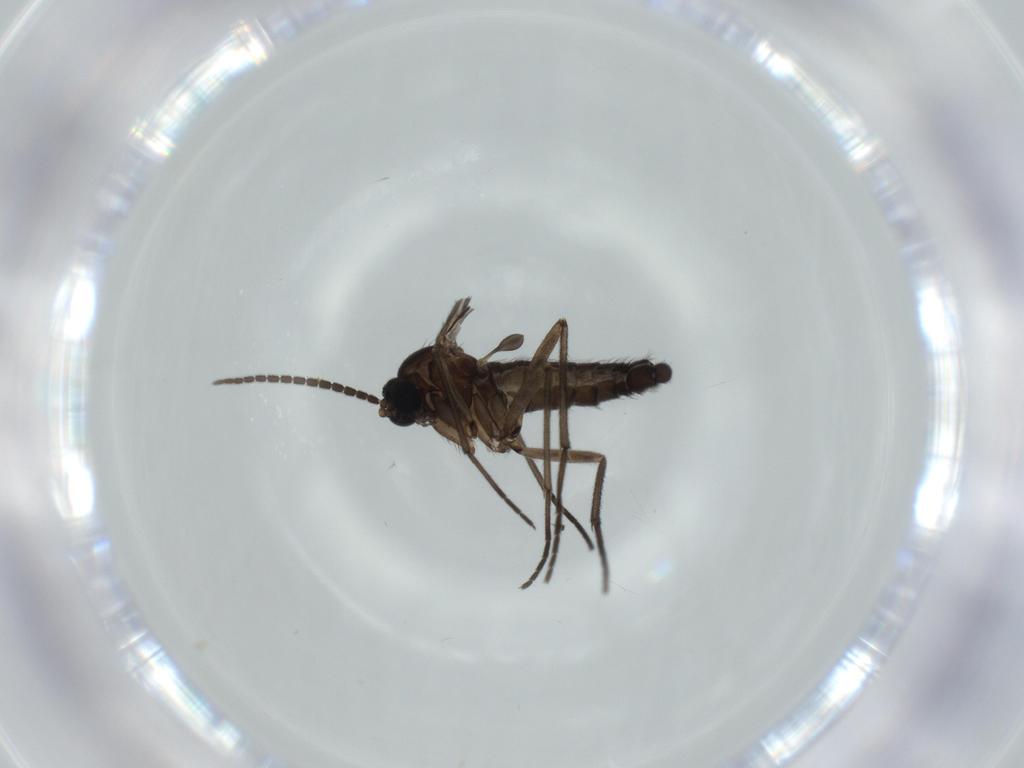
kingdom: Animalia
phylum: Arthropoda
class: Insecta
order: Diptera
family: Sciaridae
